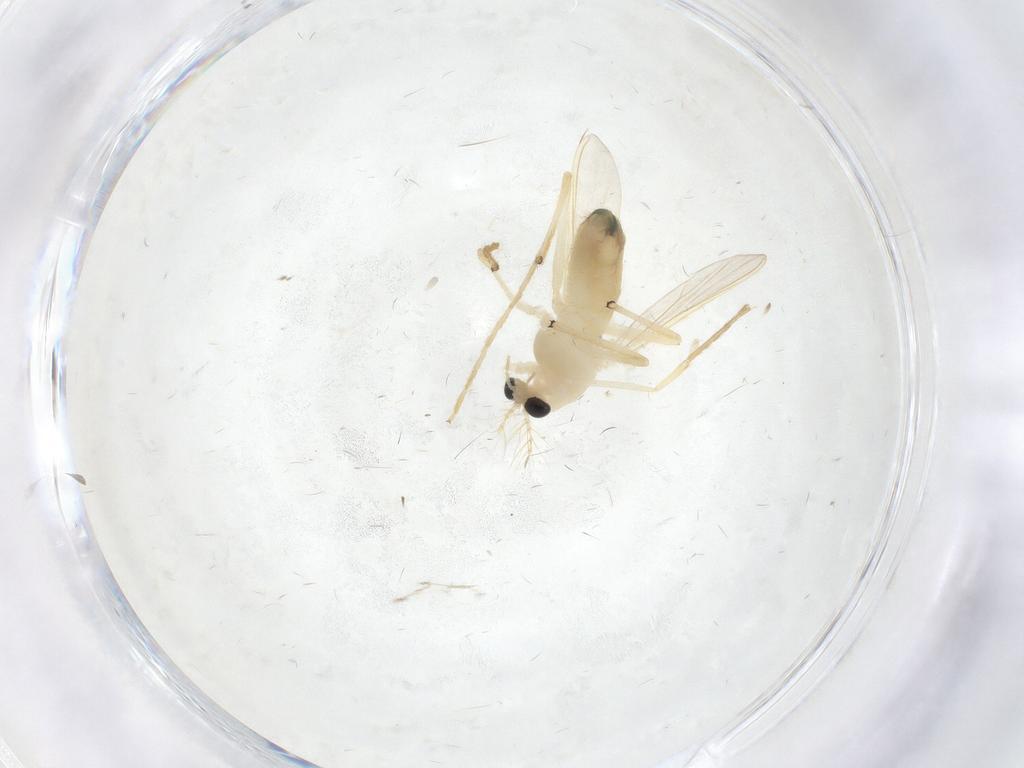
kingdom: Animalia
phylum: Arthropoda
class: Insecta
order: Diptera
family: Chironomidae
